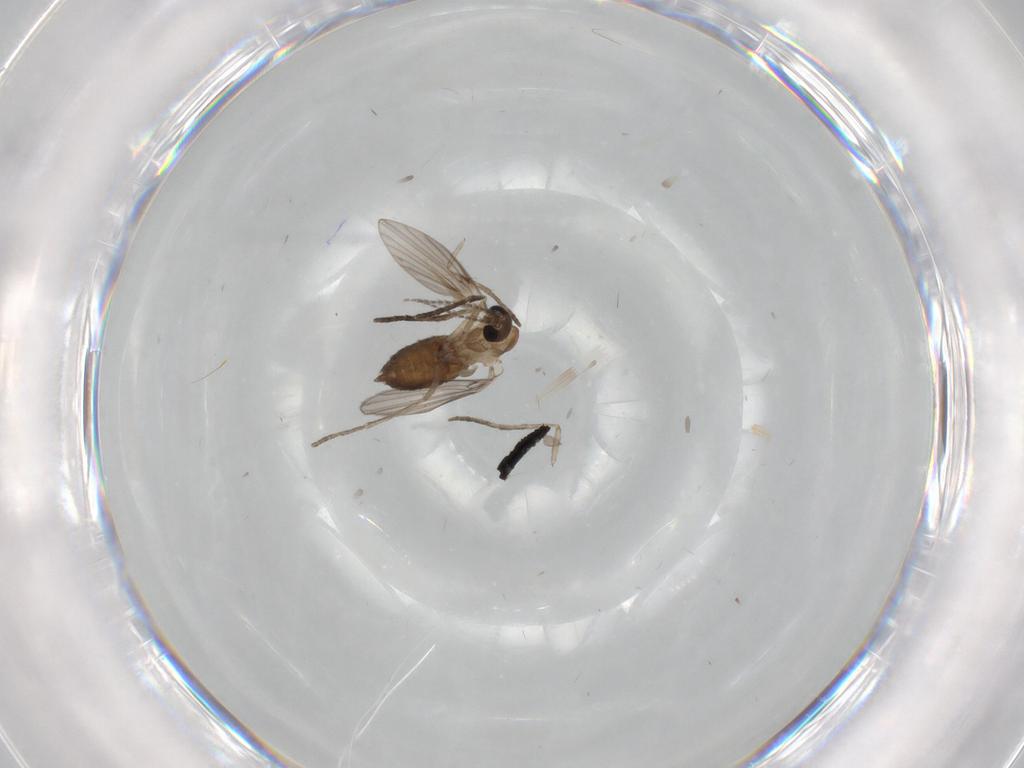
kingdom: Animalia
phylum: Arthropoda
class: Insecta
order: Diptera
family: Psychodidae
